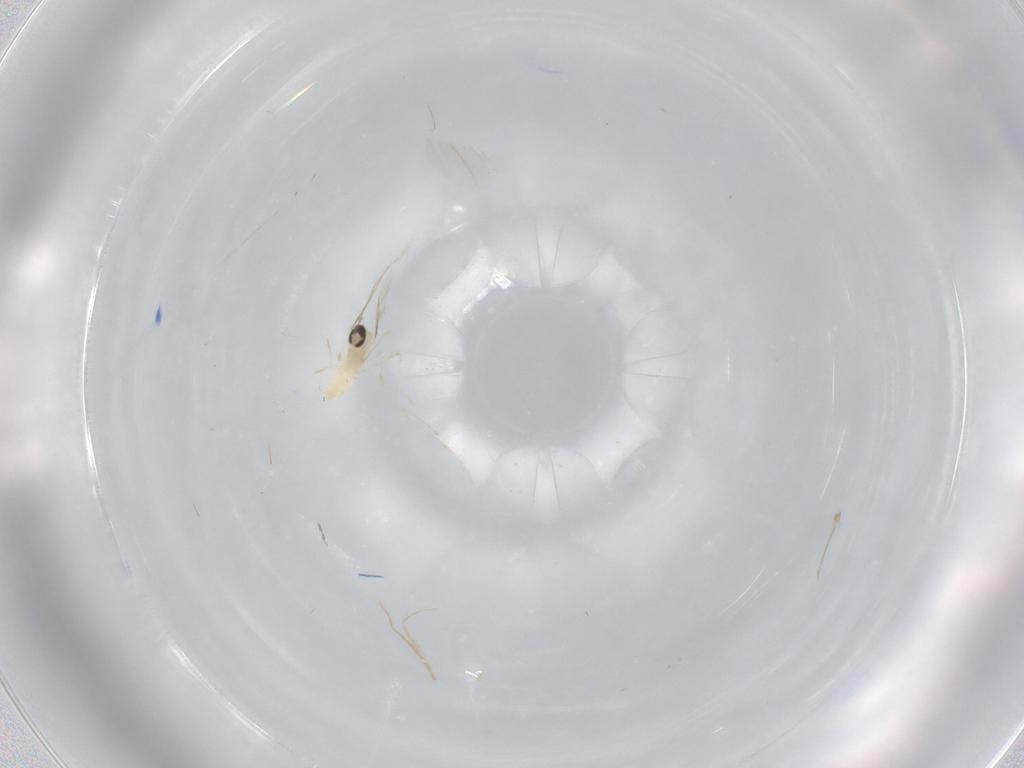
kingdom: Animalia
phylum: Arthropoda
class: Insecta
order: Diptera
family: Cecidomyiidae
